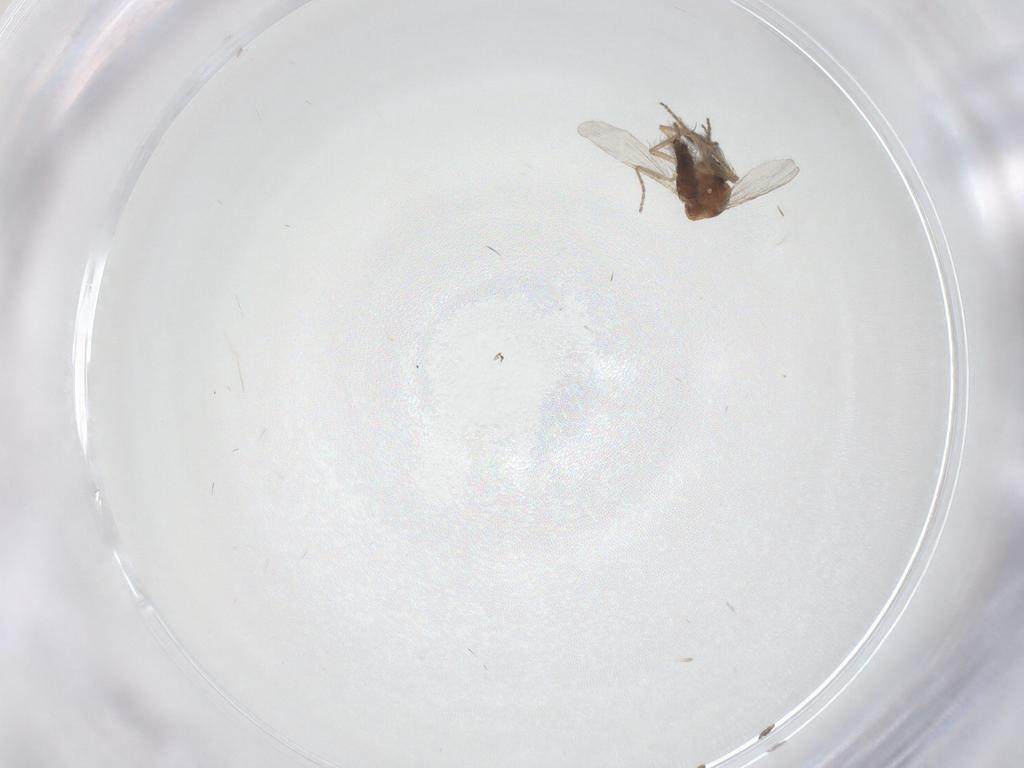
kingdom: Animalia
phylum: Arthropoda
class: Insecta
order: Diptera
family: Ceratopogonidae
